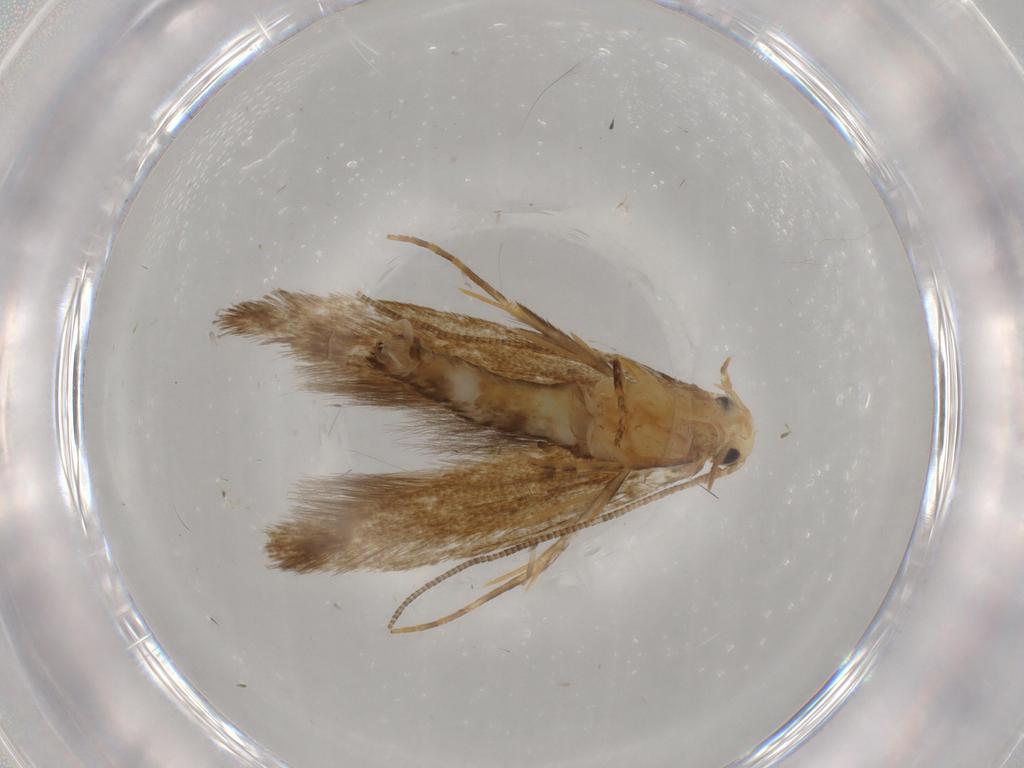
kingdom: Animalia
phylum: Arthropoda
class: Insecta
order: Lepidoptera
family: Tineidae
